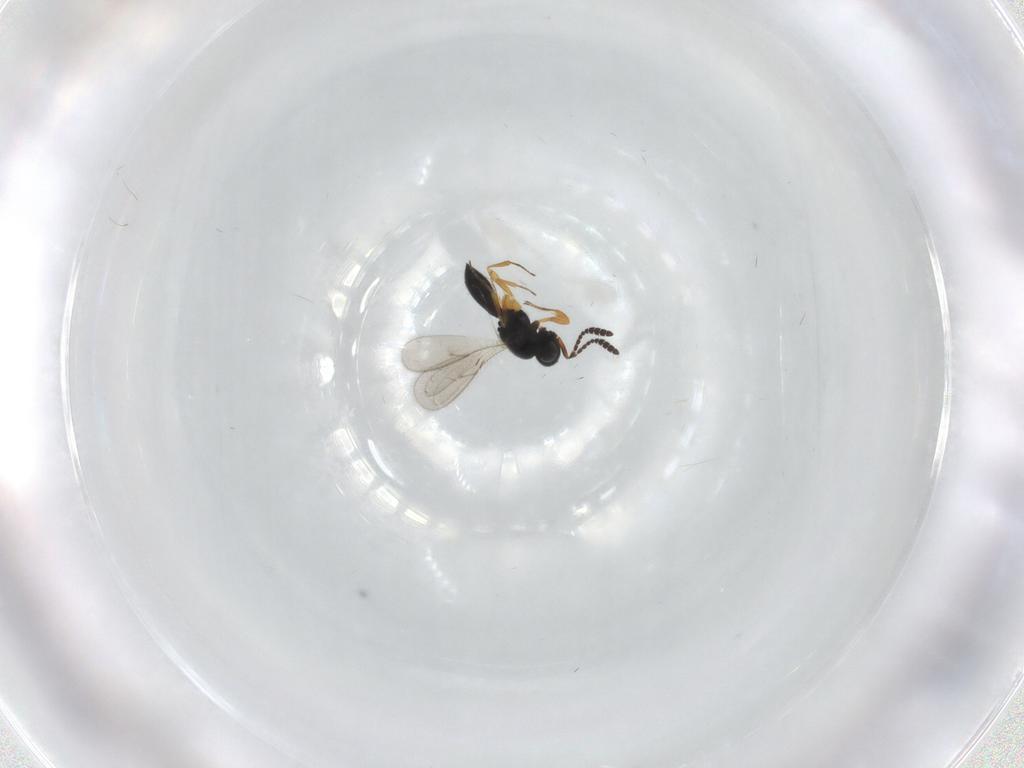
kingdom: Animalia
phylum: Arthropoda
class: Insecta
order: Hymenoptera
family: Scelionidae
